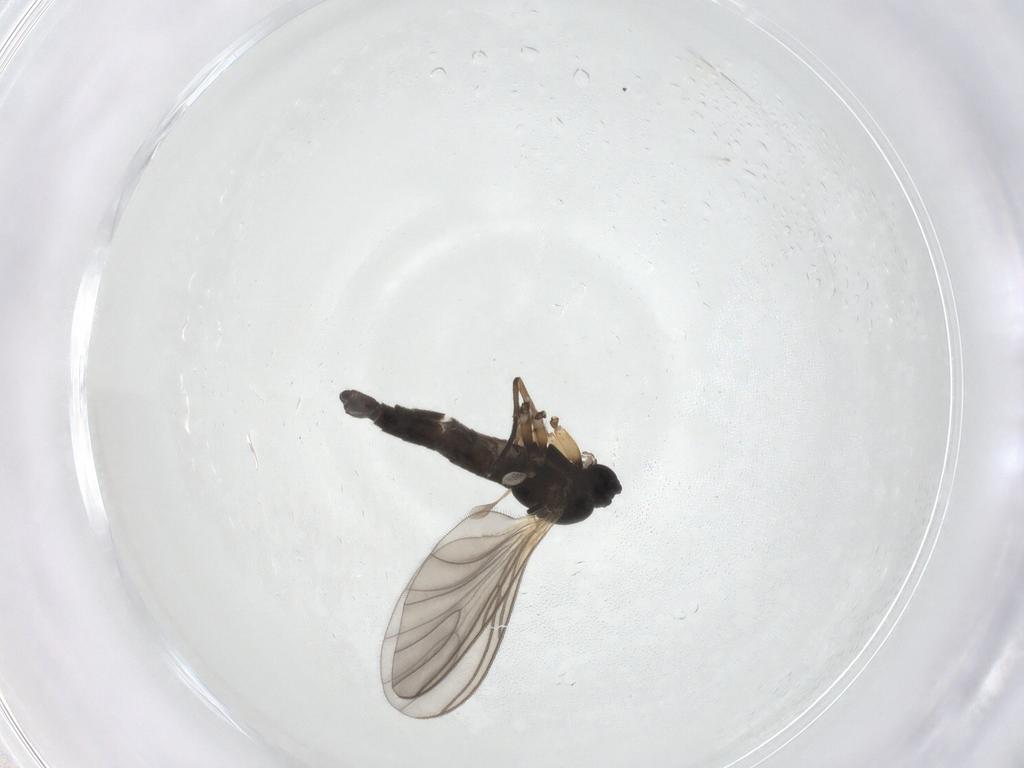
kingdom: Animalia
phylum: Arthropoda
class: Insecta
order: Diptera
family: Sciaridae
